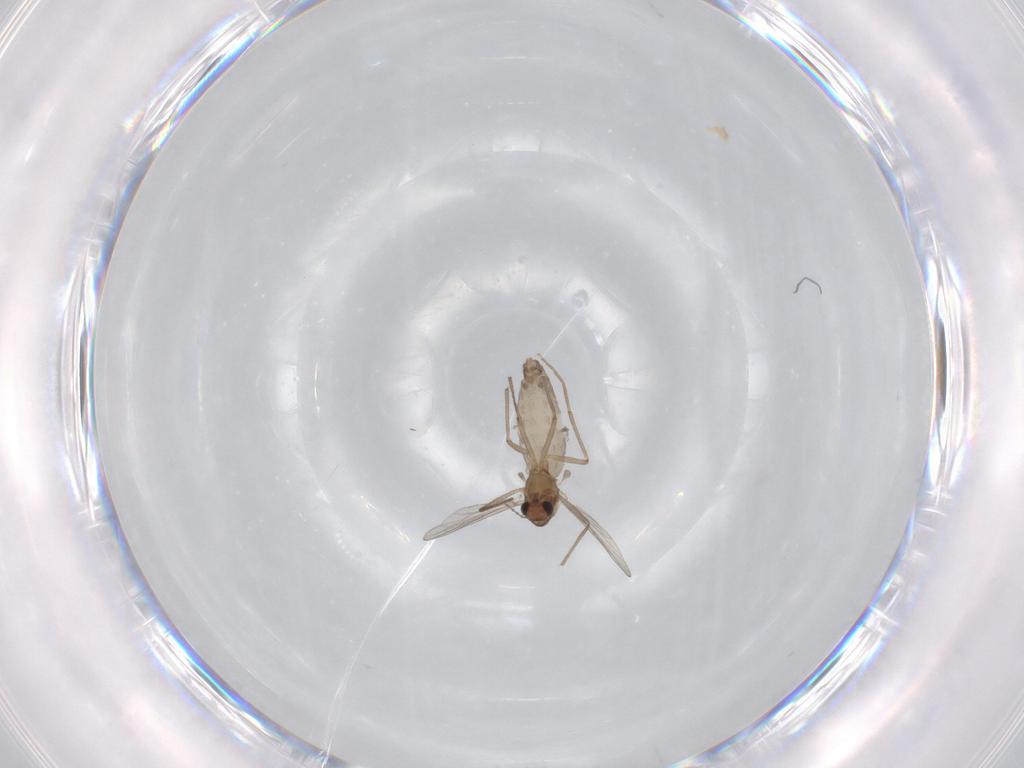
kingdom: Animalia
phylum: Arthropoda
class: Insecta
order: Diptera
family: Chironomidae
